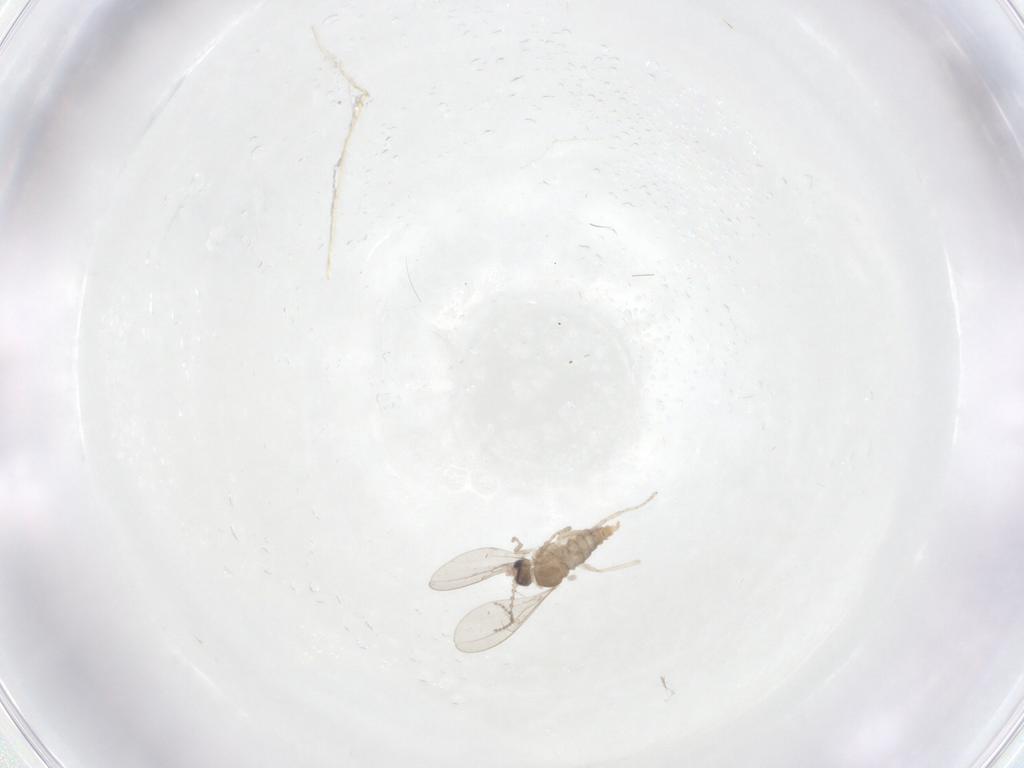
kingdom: Animalia
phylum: Arthropoda
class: Insecta
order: Diptera
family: Cecidomyiidae
